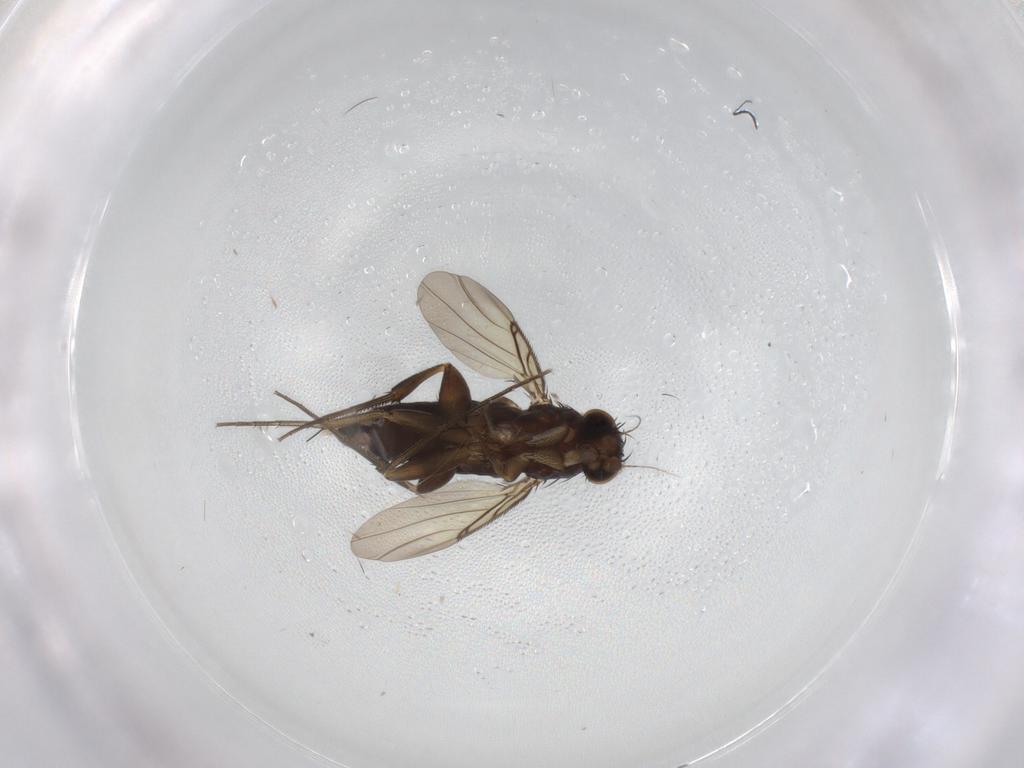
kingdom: Animalia
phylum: Arthropoda
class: Insecta
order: Diptera
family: Phoridae
